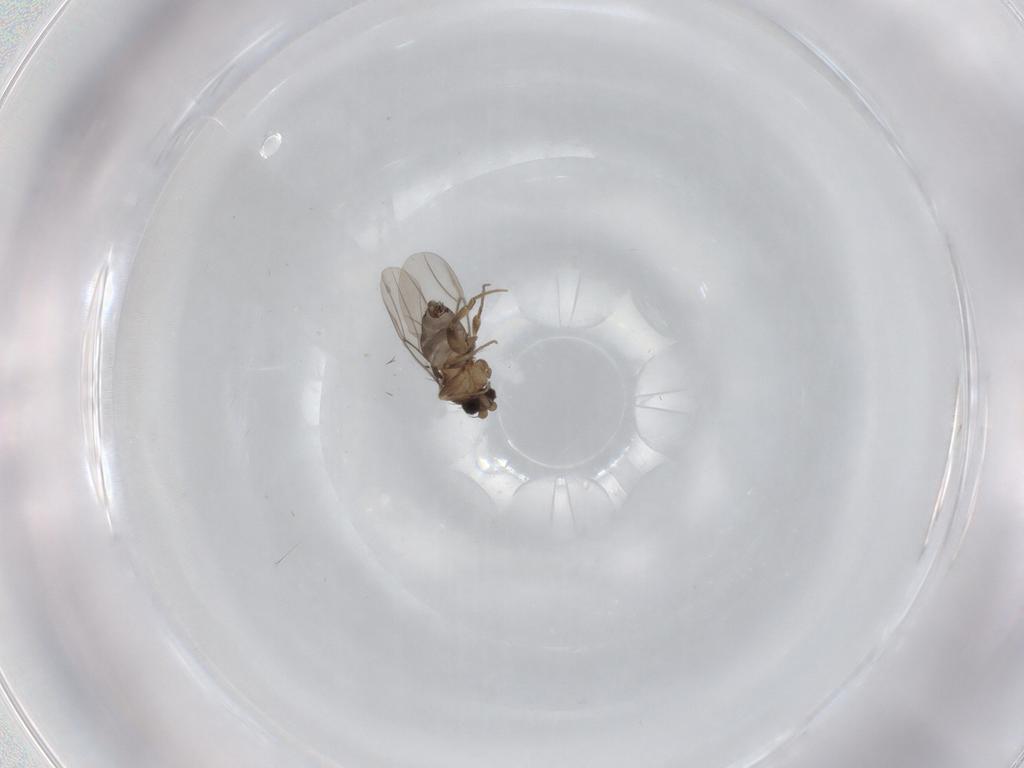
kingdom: Animalia
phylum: Arthropoda
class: Insecta
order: Diptera
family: Phoridae
